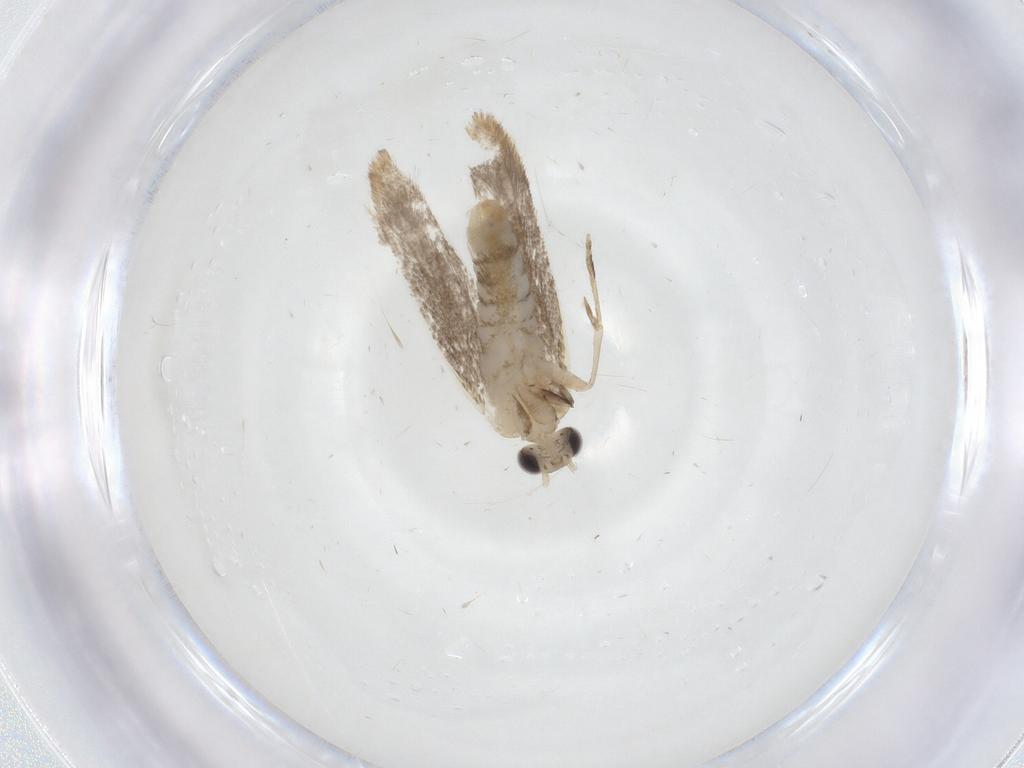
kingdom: Animalia
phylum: Arthropoda
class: Insecta
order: Lepidoptera
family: Dryadaulidae
